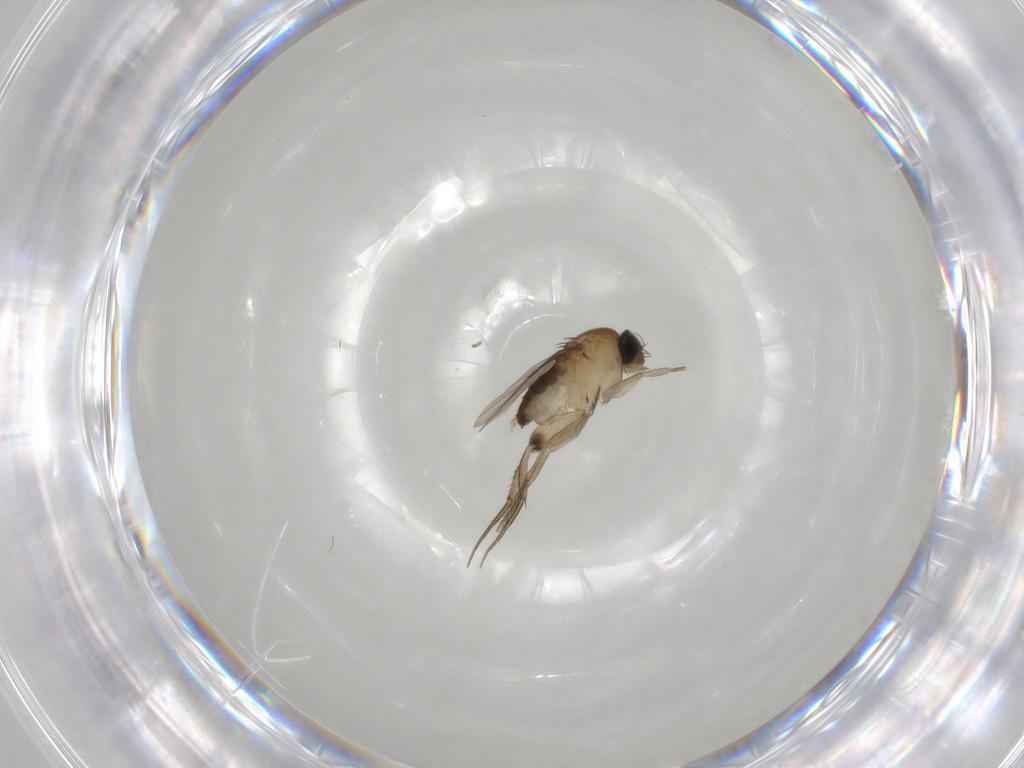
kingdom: Animalia
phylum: Arthropoda
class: Insecta
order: Diptera
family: Phoridae
